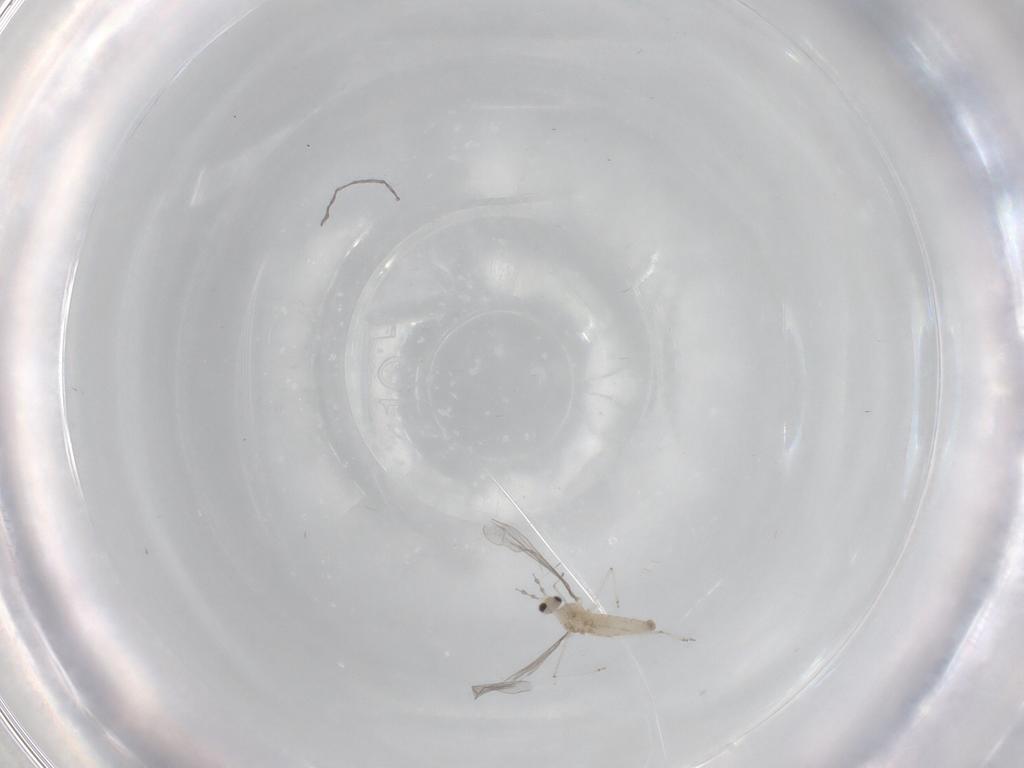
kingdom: Animalia
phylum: Arthropoda
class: Insecta
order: Diptera
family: Cecidomyiidae
